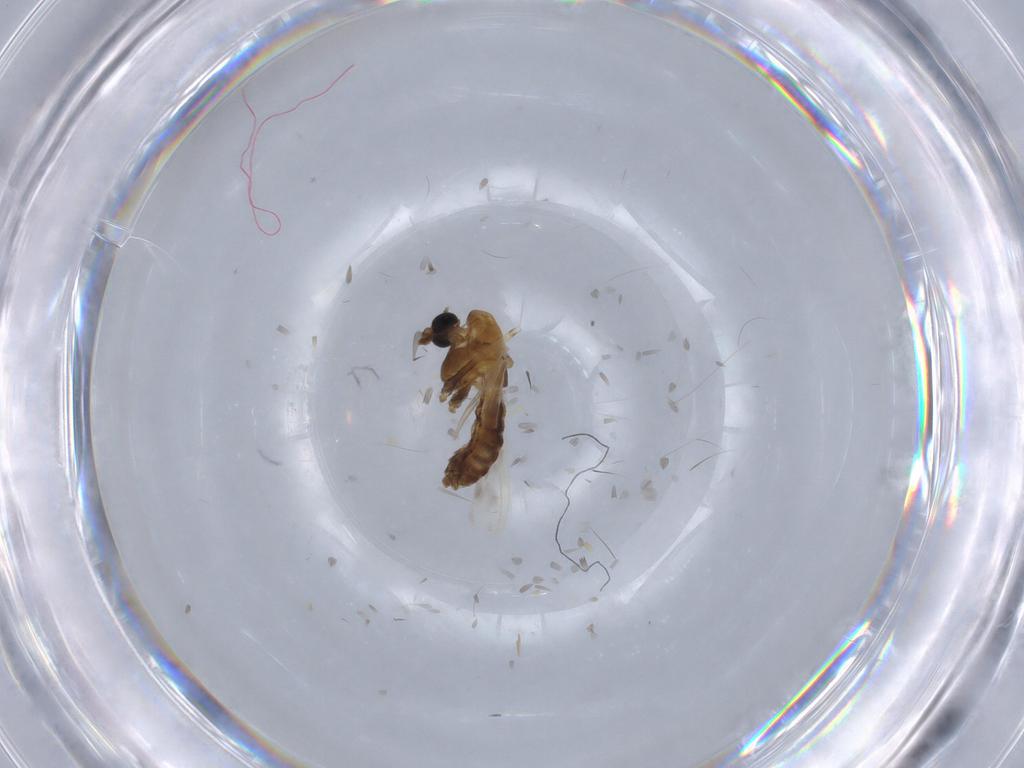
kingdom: Animalia
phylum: Arthropoda
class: Insecta
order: Diptera
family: Chironomidae
